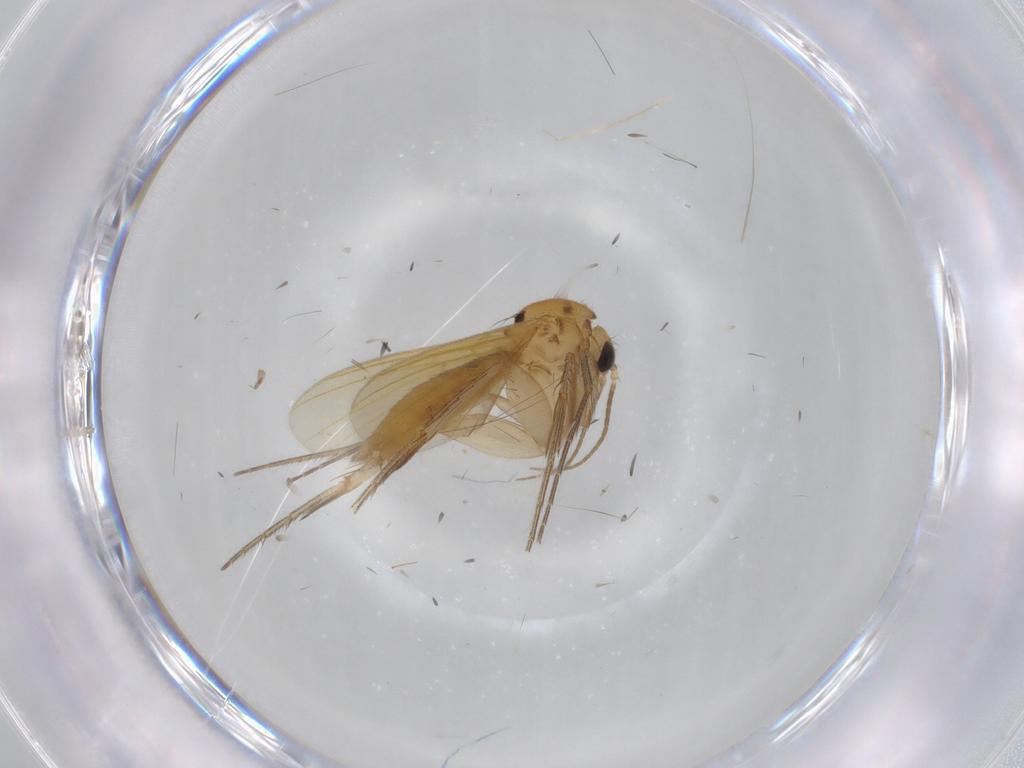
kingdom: Animalia
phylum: Arthropoda
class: Insecta
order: Diptera
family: Mycetophilidae
